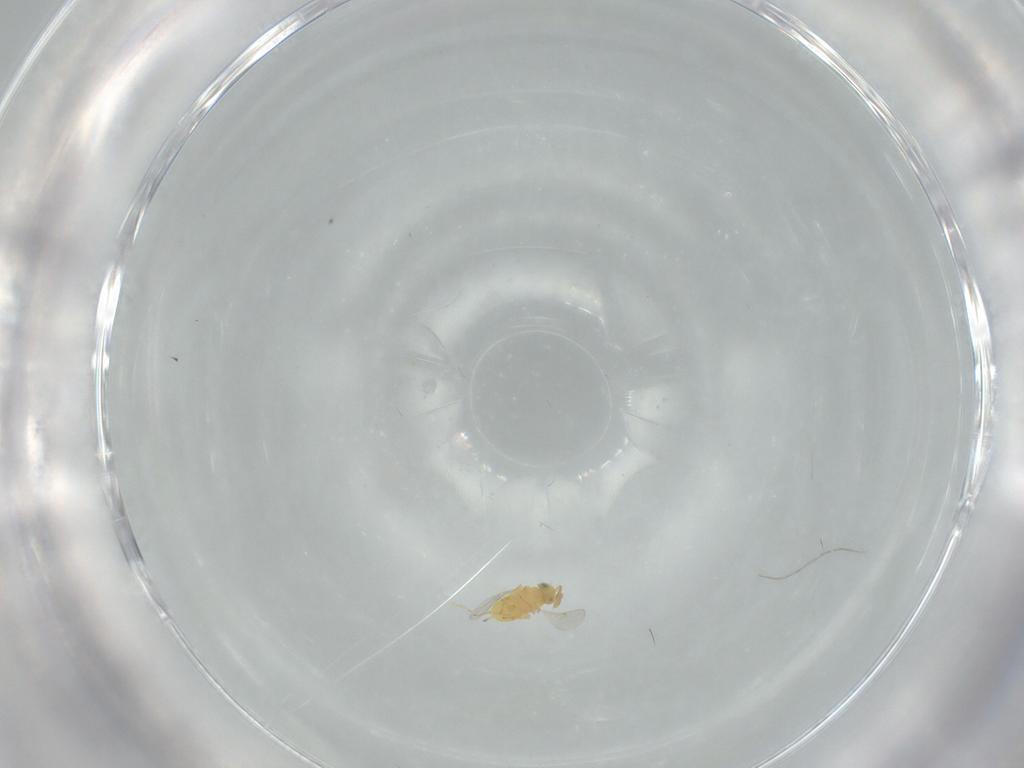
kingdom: Animalia
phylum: Arthropoda
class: Insecta
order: Hymenoptera
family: Encyrtidae
